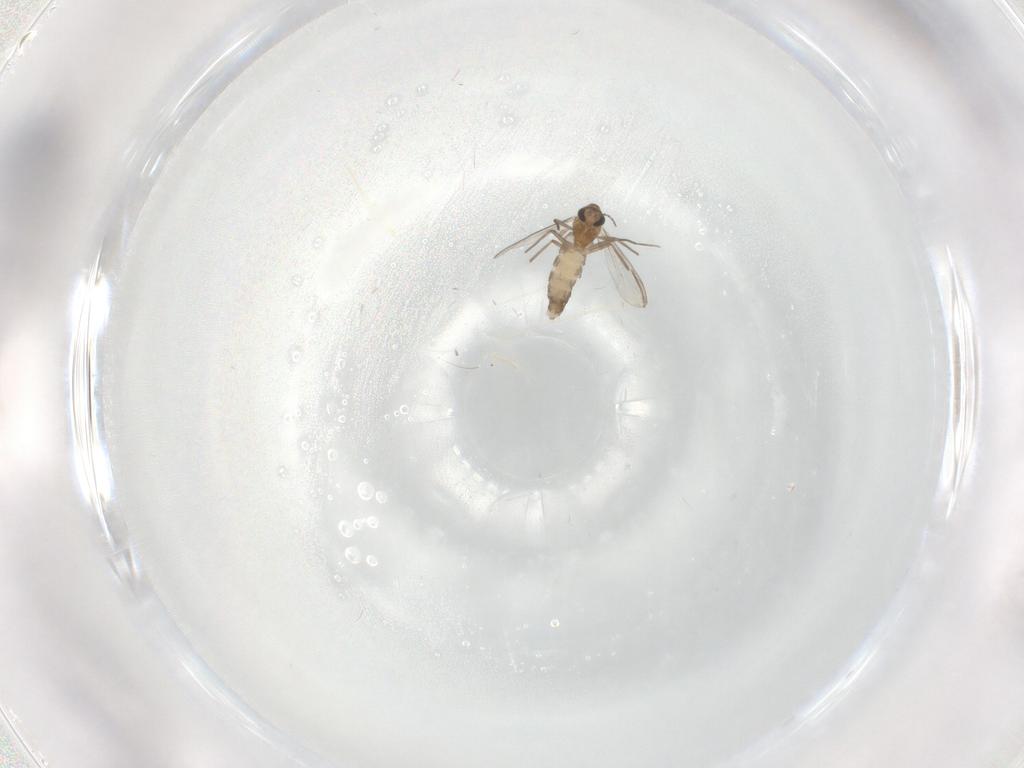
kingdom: Animalia
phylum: Arthropoda
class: Insecta
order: Diptera
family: Chironomidae
